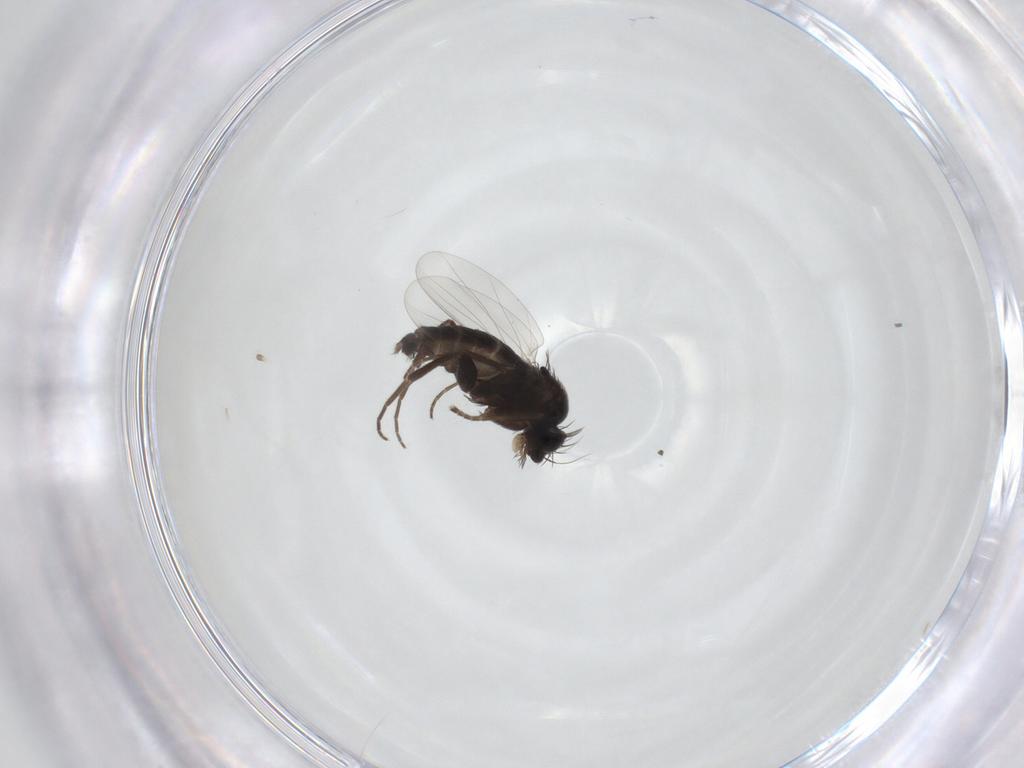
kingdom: Animalia
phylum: Arthropoda
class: Insecta
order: Diptera
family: Phoridae
